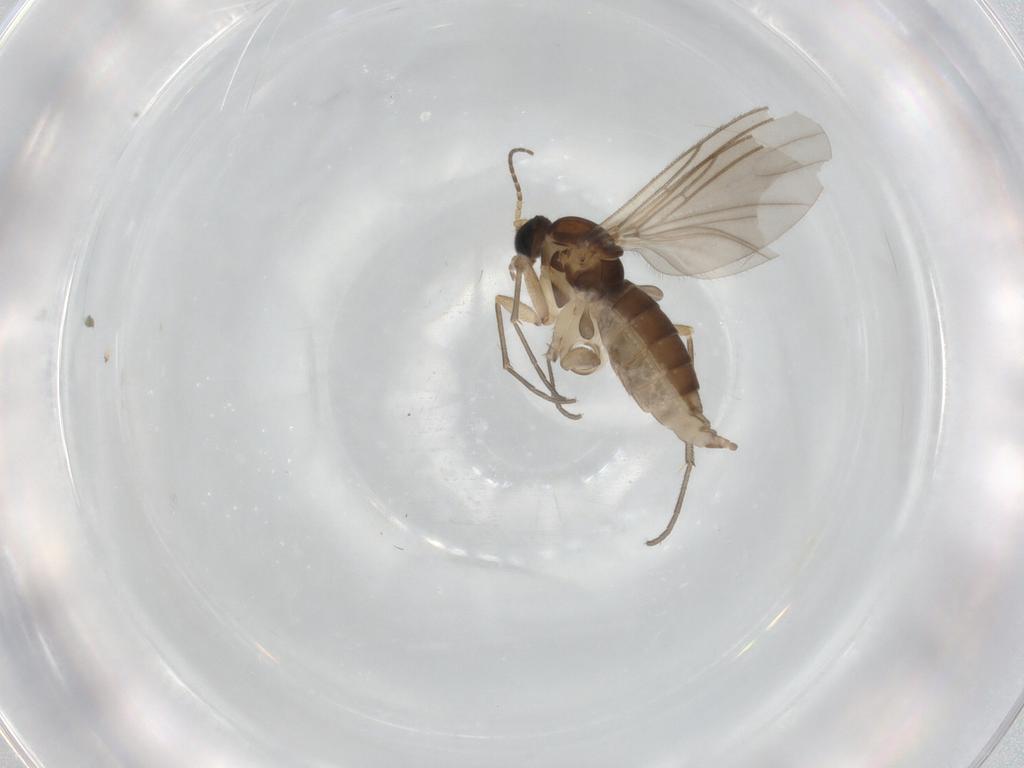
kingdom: Animalia
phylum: Arthropoda
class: Insecta
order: Diptera
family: Sciaridae
